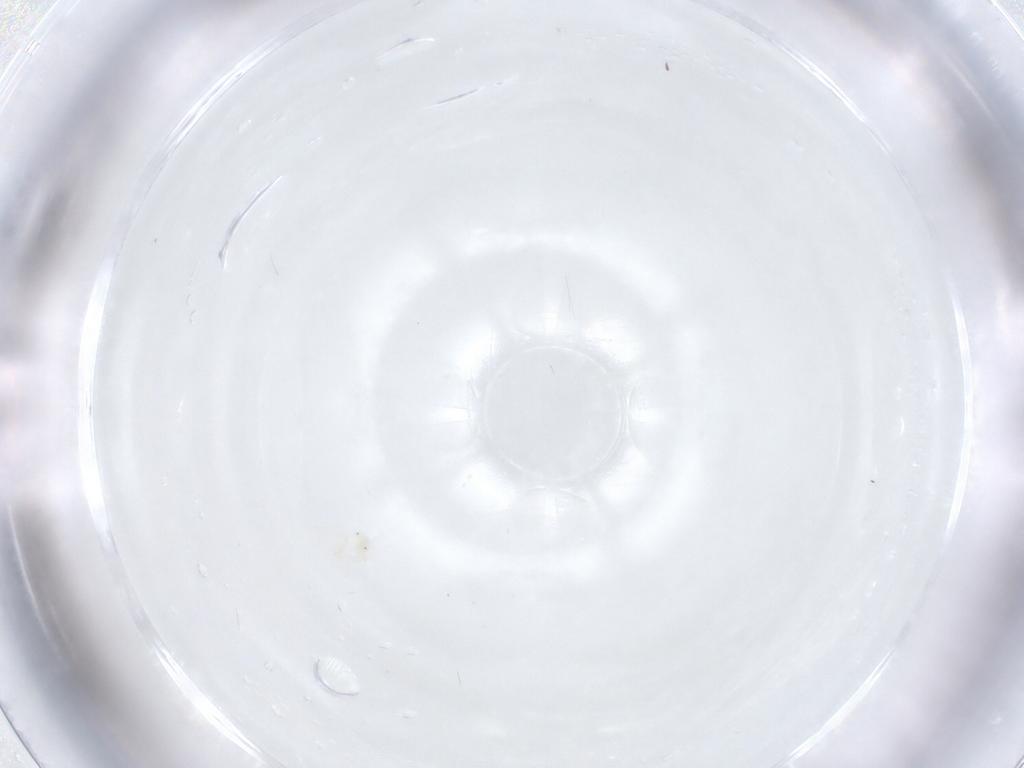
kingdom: Animalia
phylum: Arthropoda
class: Arachnida
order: Trombidiformes
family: Anystidae
